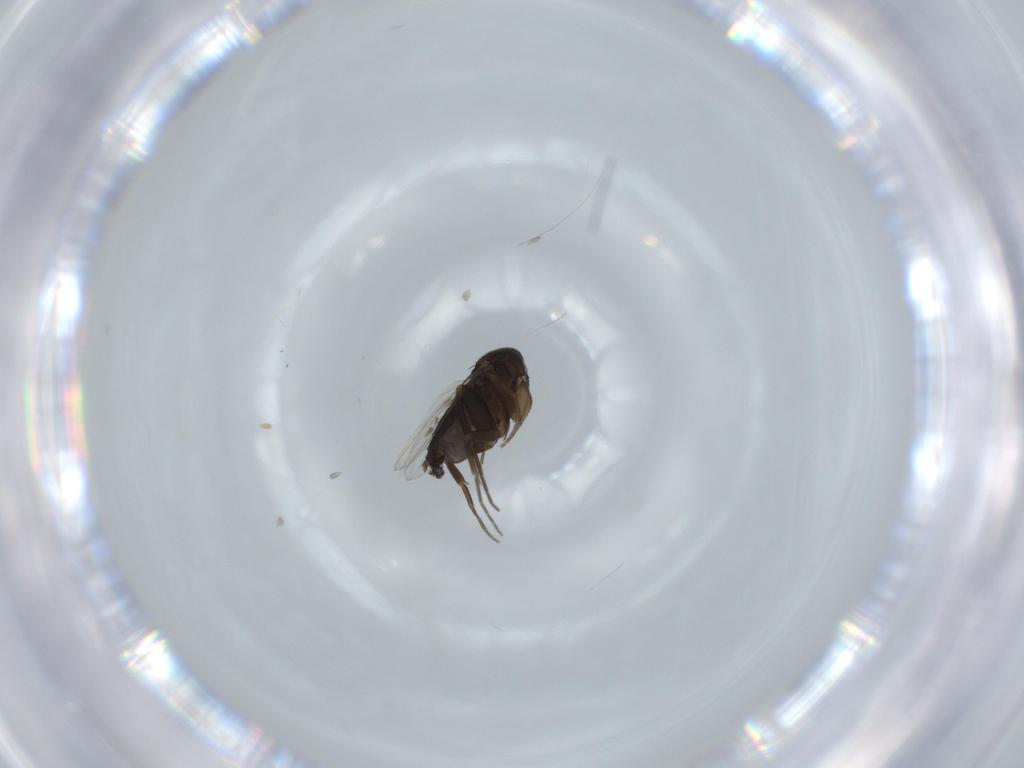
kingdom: Animalia
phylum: Arthropoda
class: Insecta
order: Diptera
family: Phoridae
